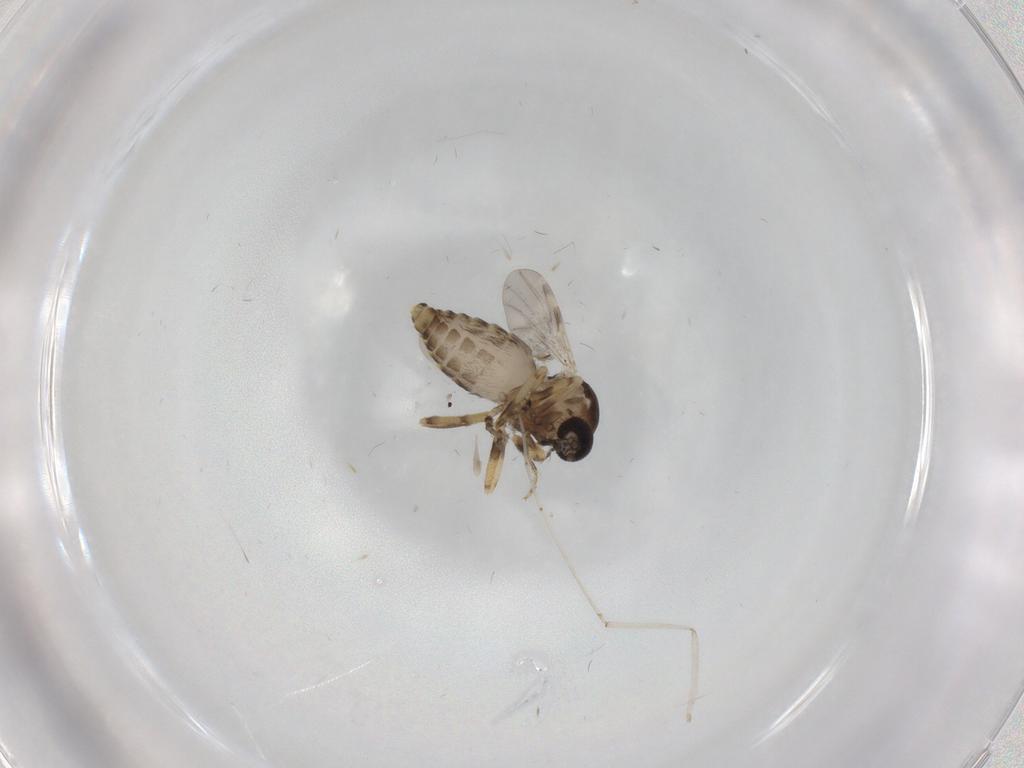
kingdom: Animalia
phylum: Arthropoda
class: Insecta
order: Diptera
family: Ceratopogonidae
